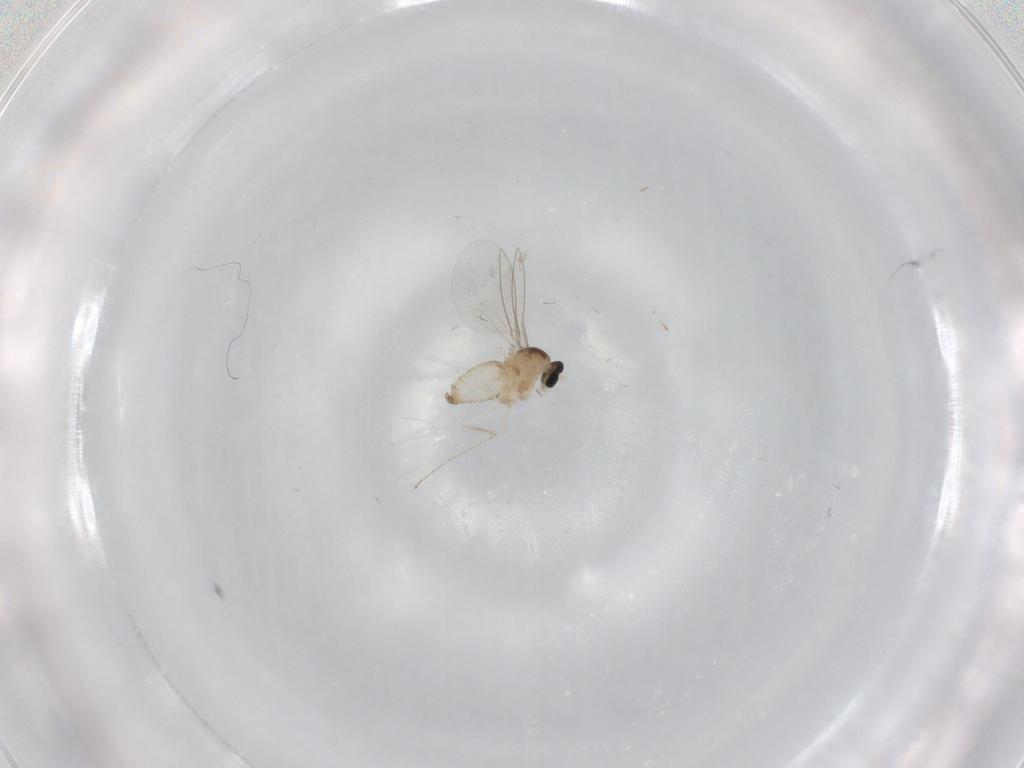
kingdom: Animalia
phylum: Arthropoda
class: Insecta
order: Diptera
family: Cecidomyiidae
